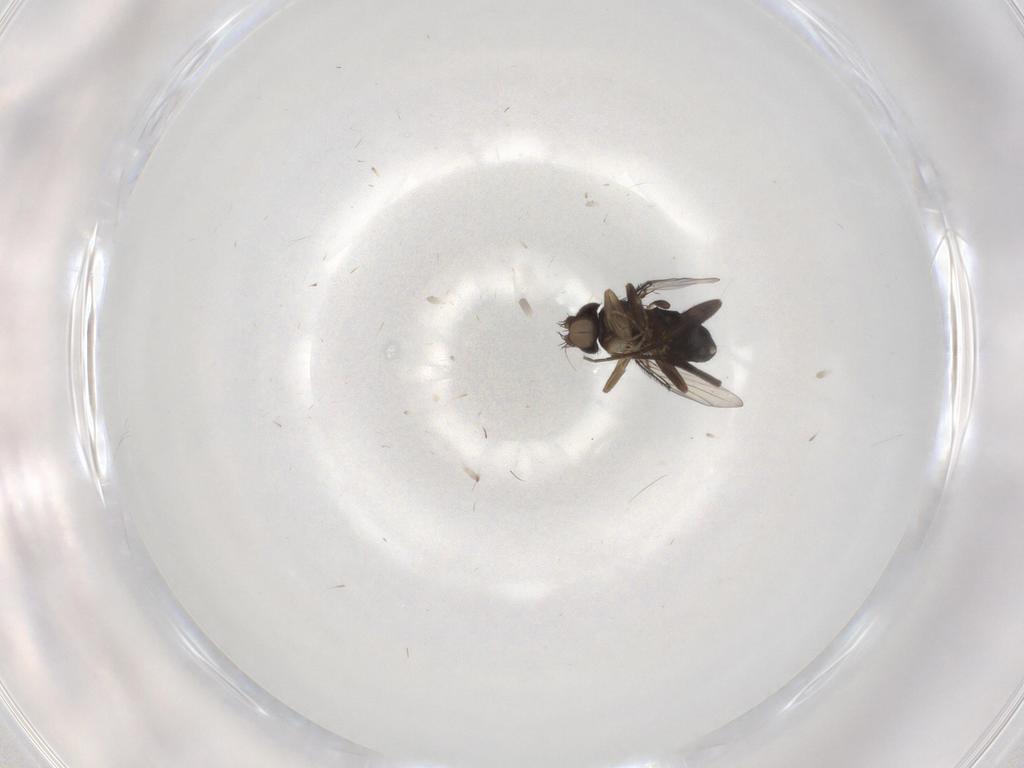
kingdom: Animalia
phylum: Arthropoda
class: Insecta
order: Diptera
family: Phoridae
